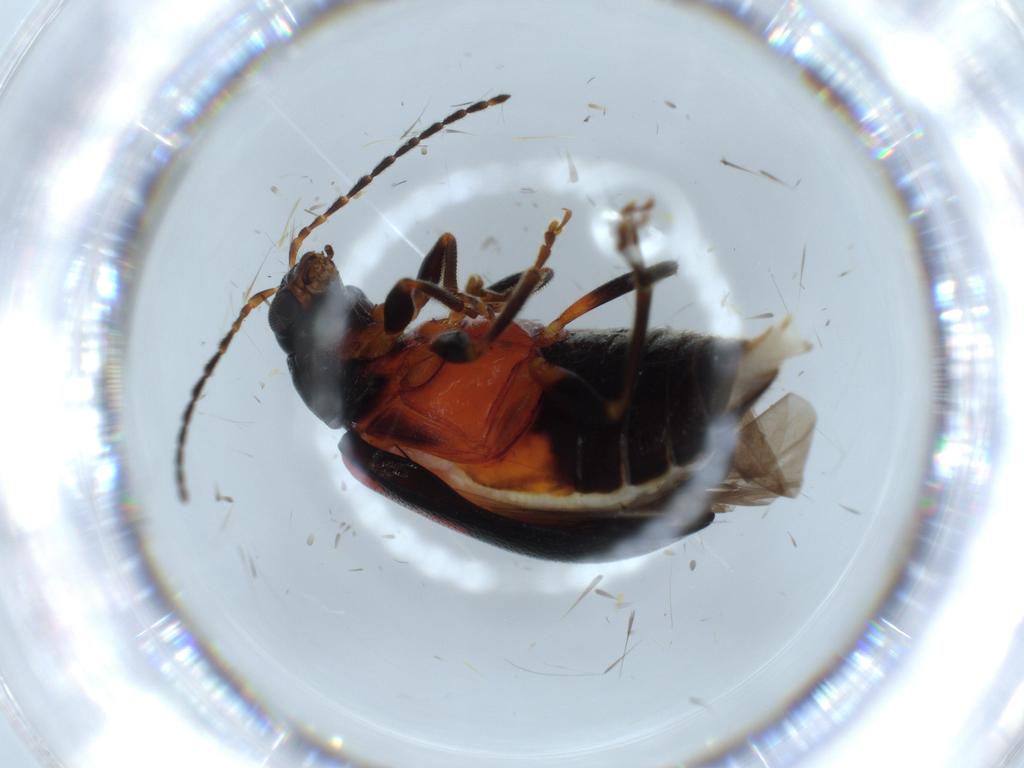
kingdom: Animalia
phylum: Arthropoda
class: Insecta
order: Coleoptera
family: Chrysomelidae
